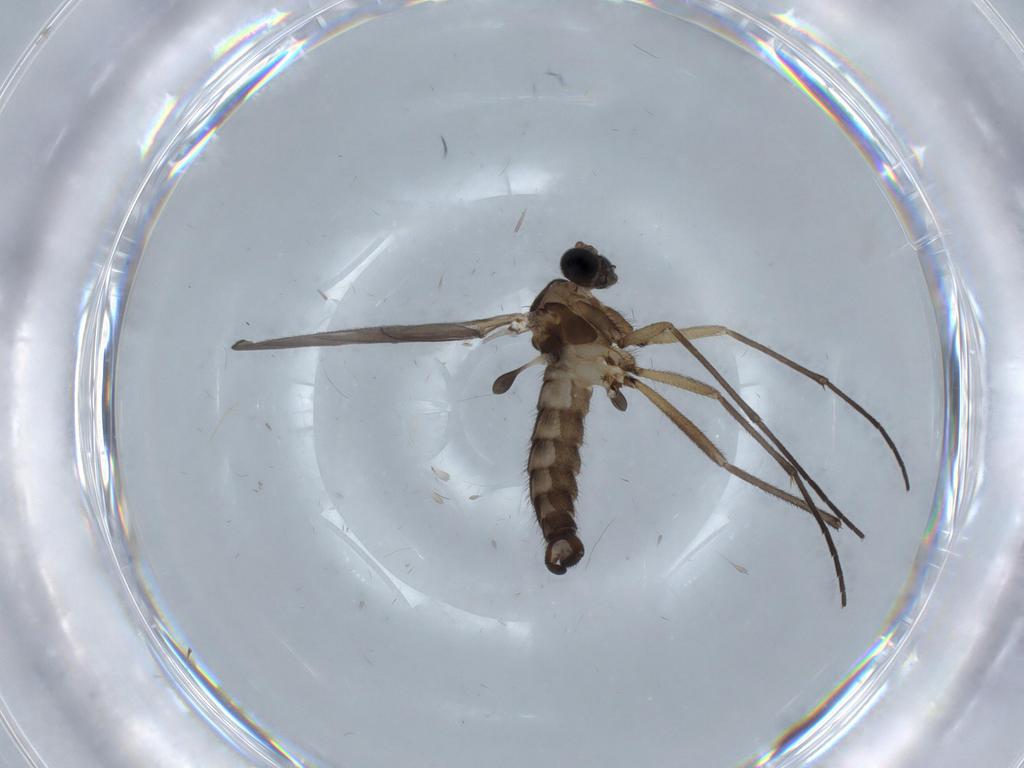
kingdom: Animalia
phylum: Arthropoda
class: Insecta
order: Diptera
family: Sciaridae
